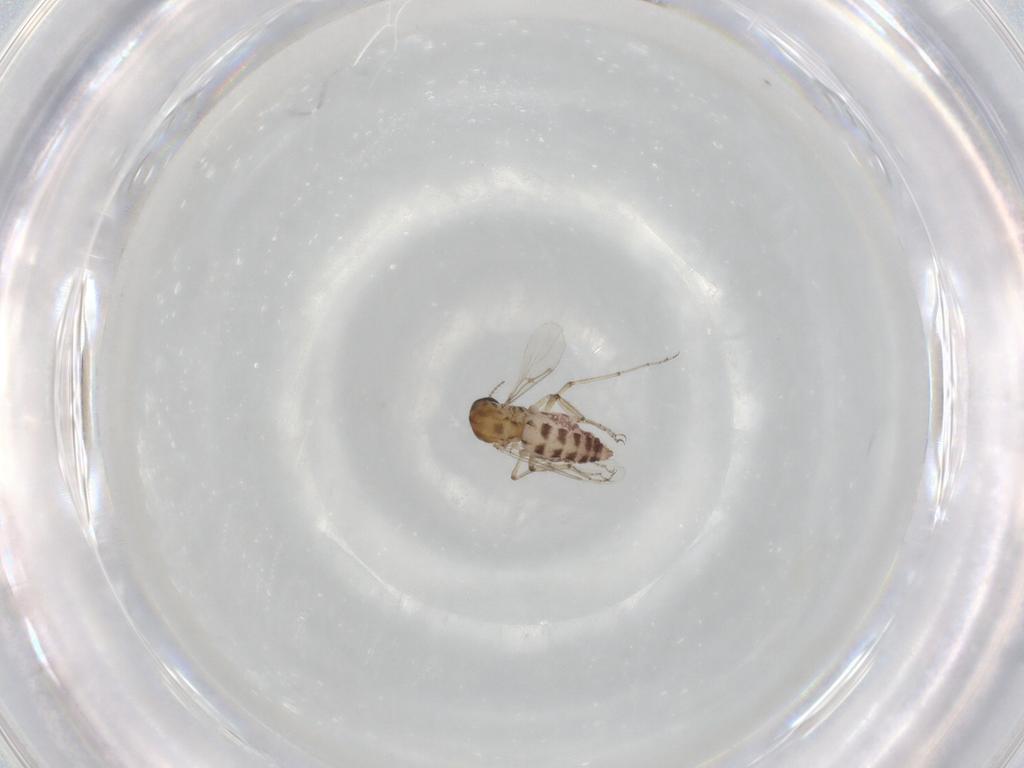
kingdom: Animalia
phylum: Arthropoda
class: Insecta
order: Diptera
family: Ceratopogonidae
